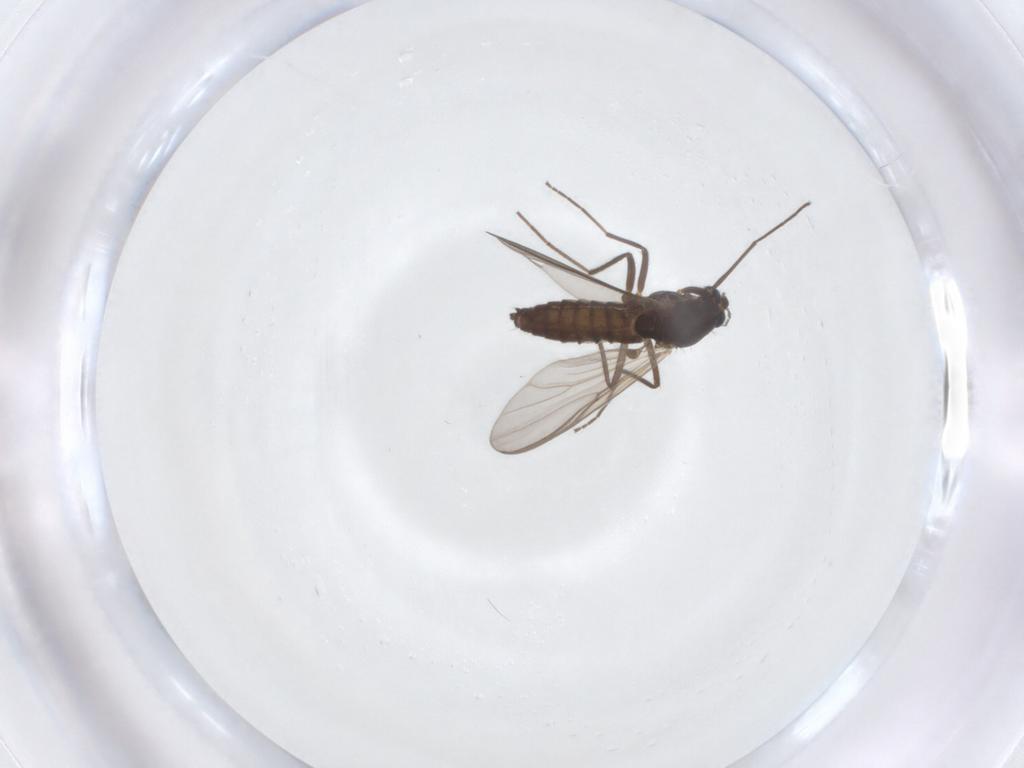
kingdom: Animalia
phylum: Arthropoda
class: Insecta
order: Diptera
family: Chironomidae
